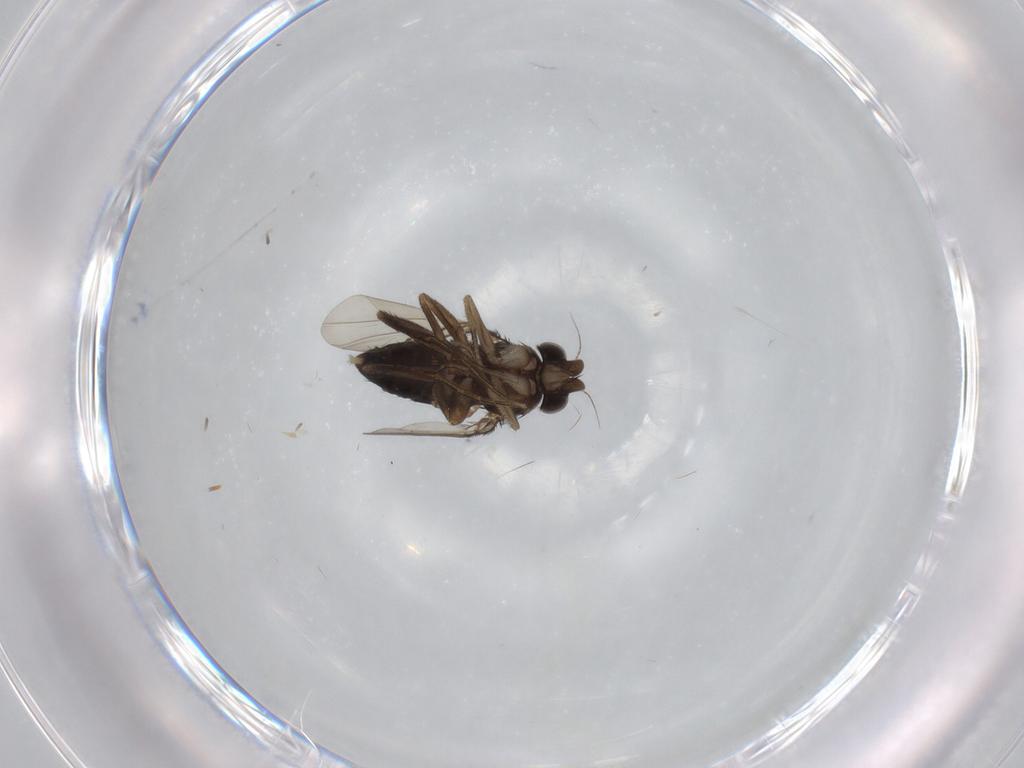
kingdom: Animalia
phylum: Arthropoda
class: Insecta
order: Diptera
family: Phoridae
